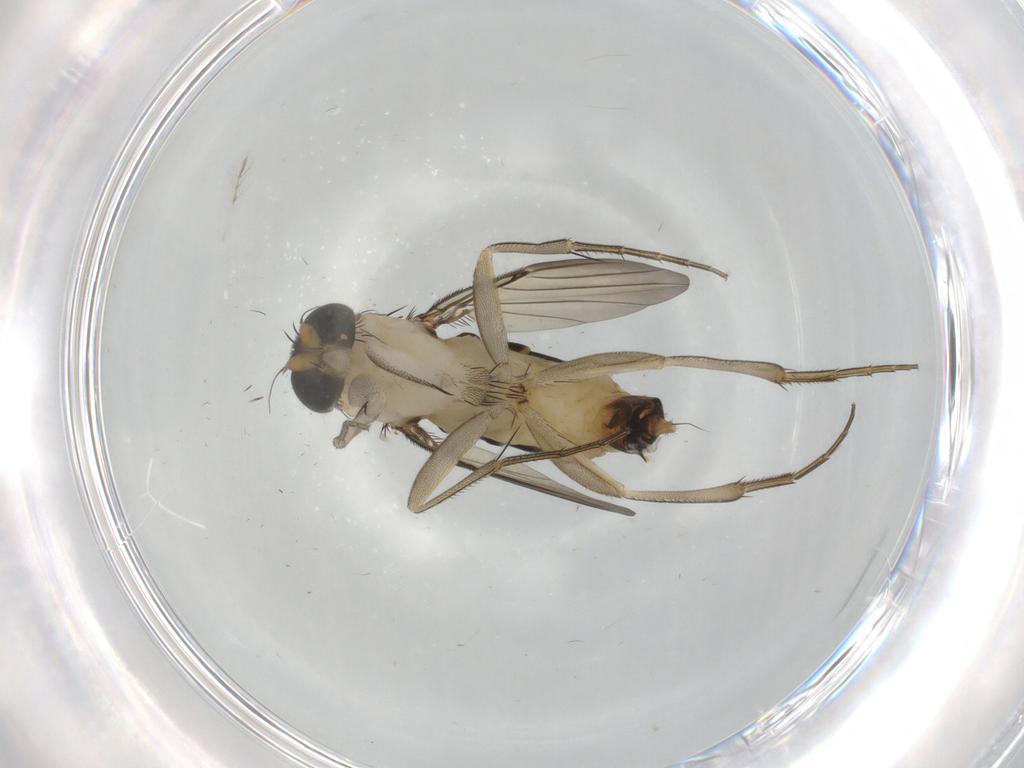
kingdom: Animalia
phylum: Arthropoda
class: Insecta
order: Diptera
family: Phoridae
